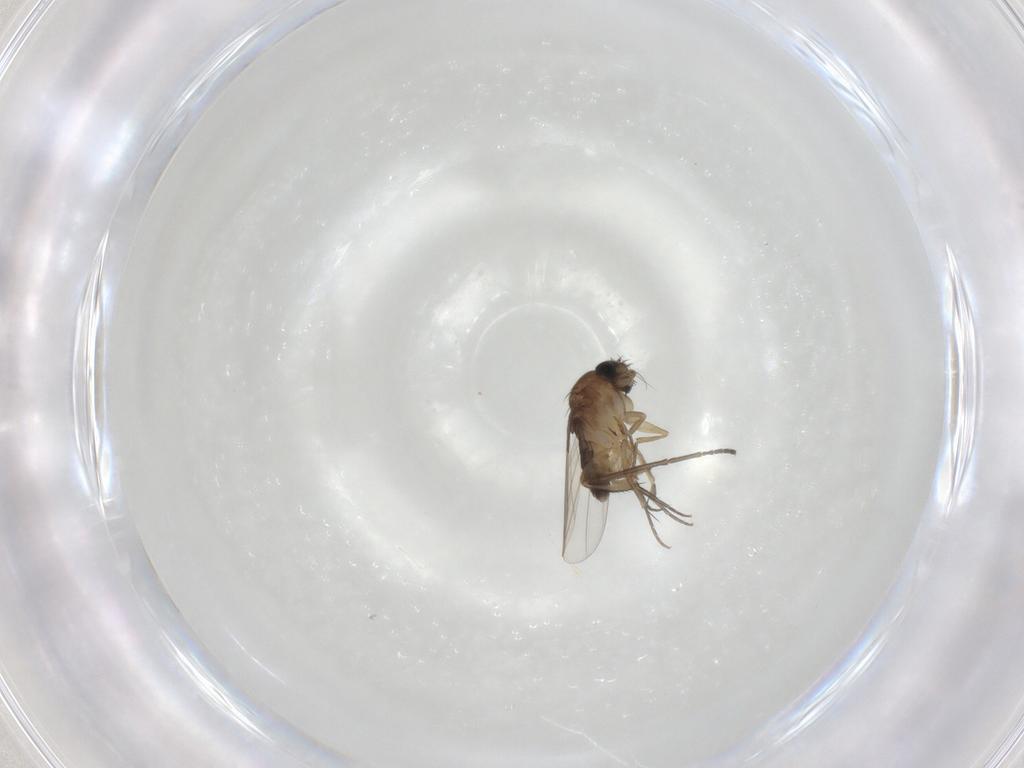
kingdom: Animalia
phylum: Arthropoda
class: Insecta
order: Diptera
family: Phoridae
